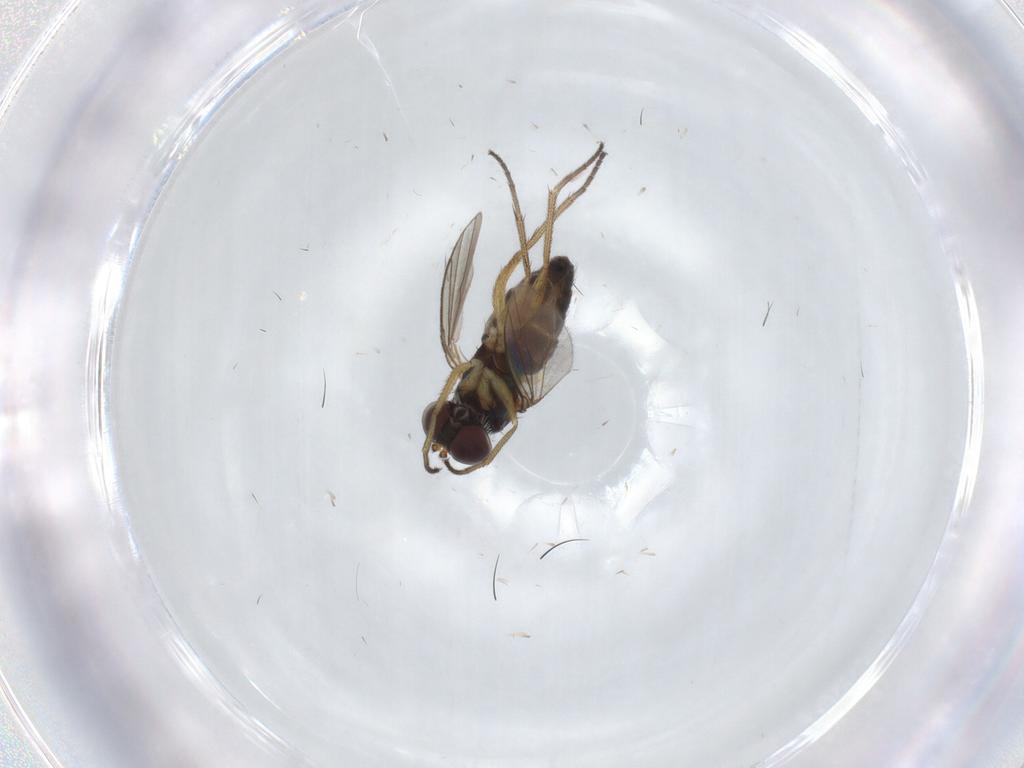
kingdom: Animalia
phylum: Arthropoda
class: Insecta
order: Diptera
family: Dolichopodidae
